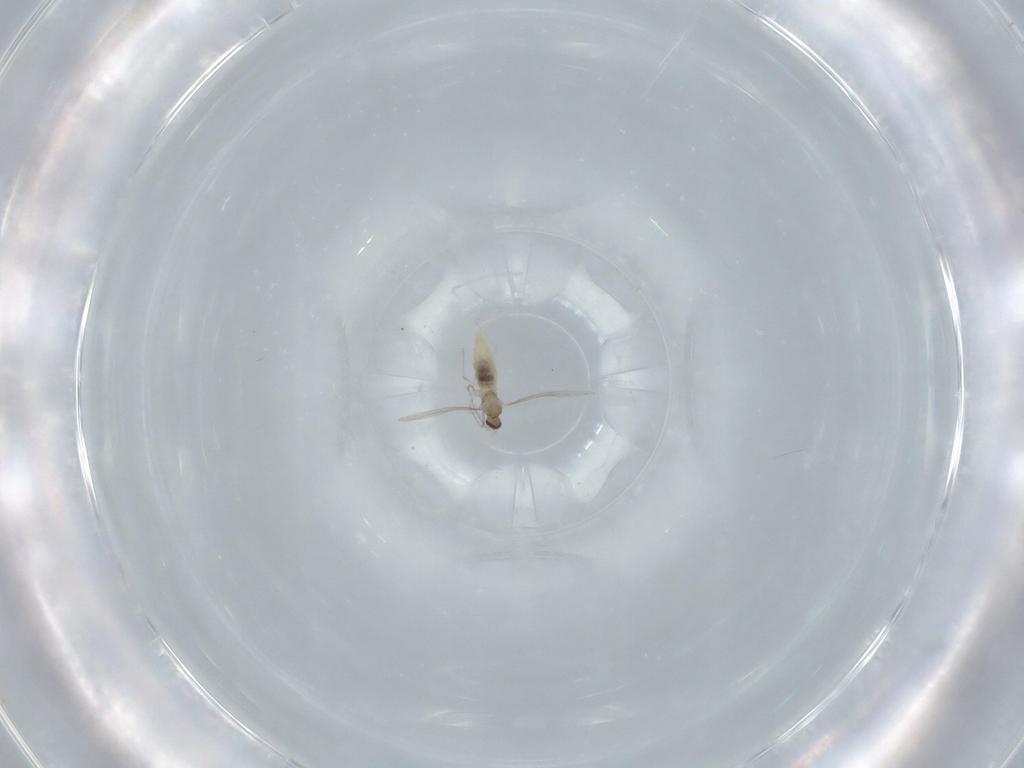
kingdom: Animalia
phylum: Arthropoda
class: Insecta
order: Diptera
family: Cecidomyiidae
